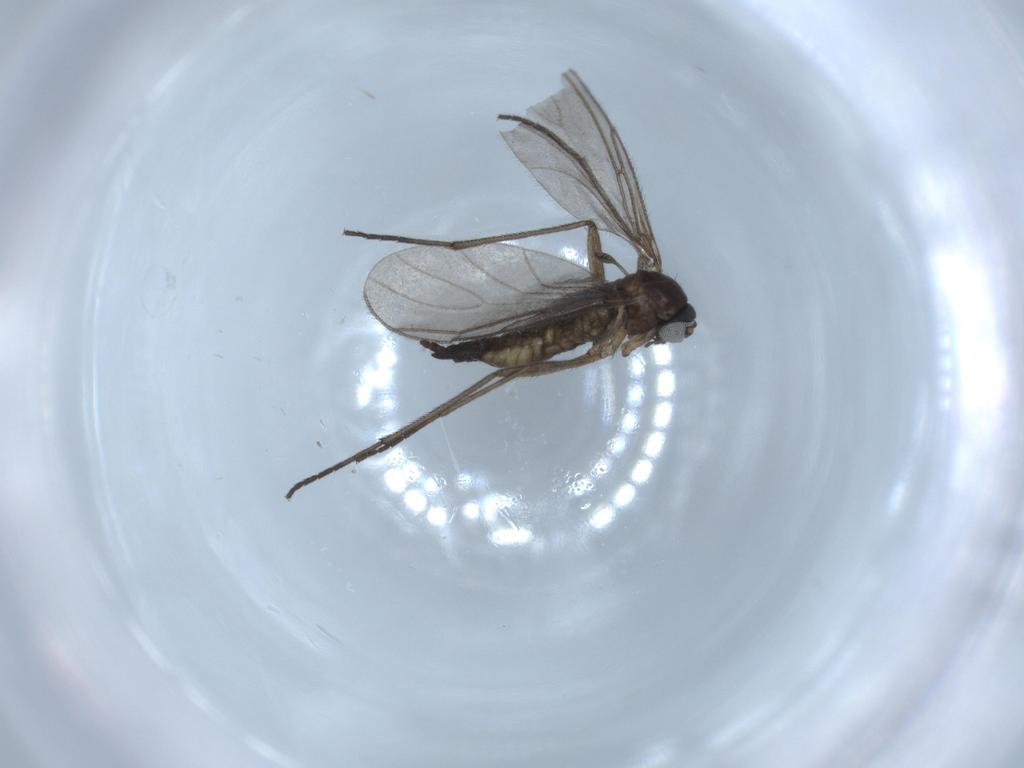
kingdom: Animalia
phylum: Arthropoda
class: Insecta
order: Diptera
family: Sciaridae
